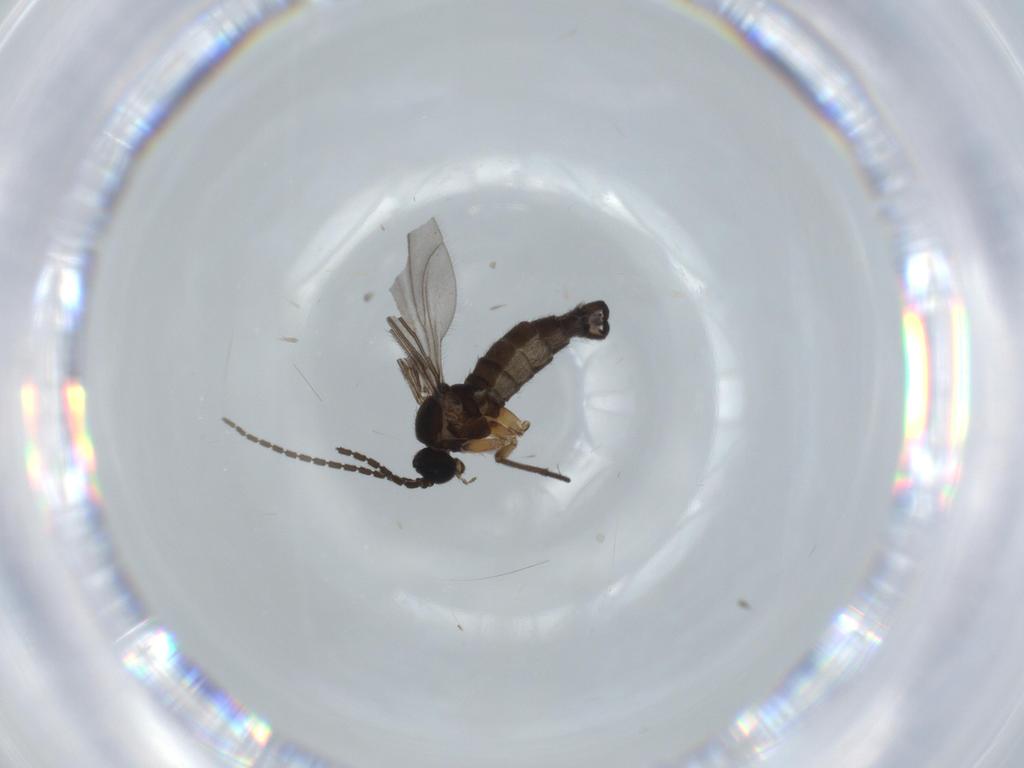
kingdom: Animalia
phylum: Arthropoda
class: Insecta
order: Diptera
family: Sciaridae
